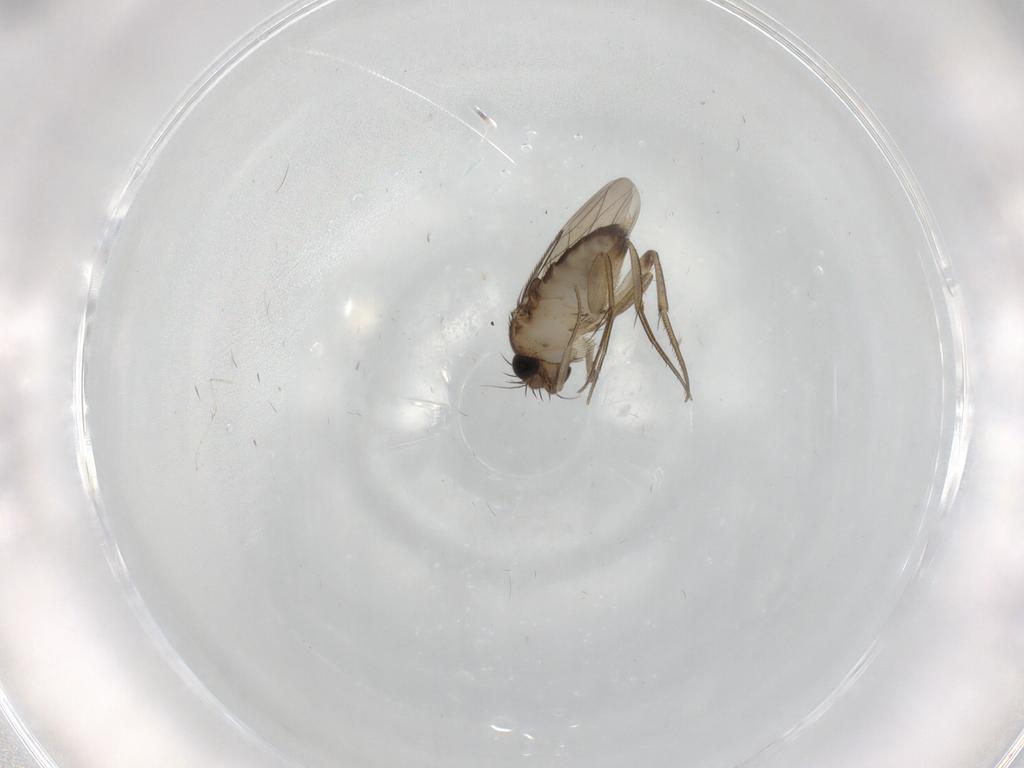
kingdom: Animalia
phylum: Arthropoda
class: Insecta
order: Diptera
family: Phoridae
